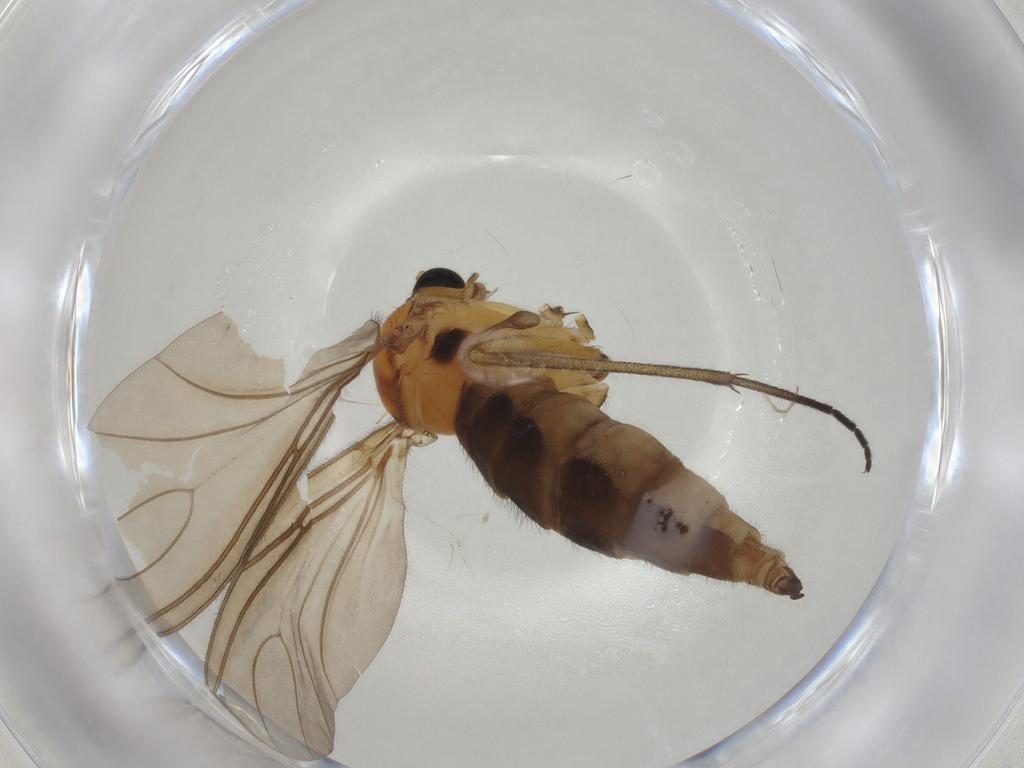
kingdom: Animalia
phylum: Arthropoda
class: Insecta
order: Diptera
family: Sciaridae
